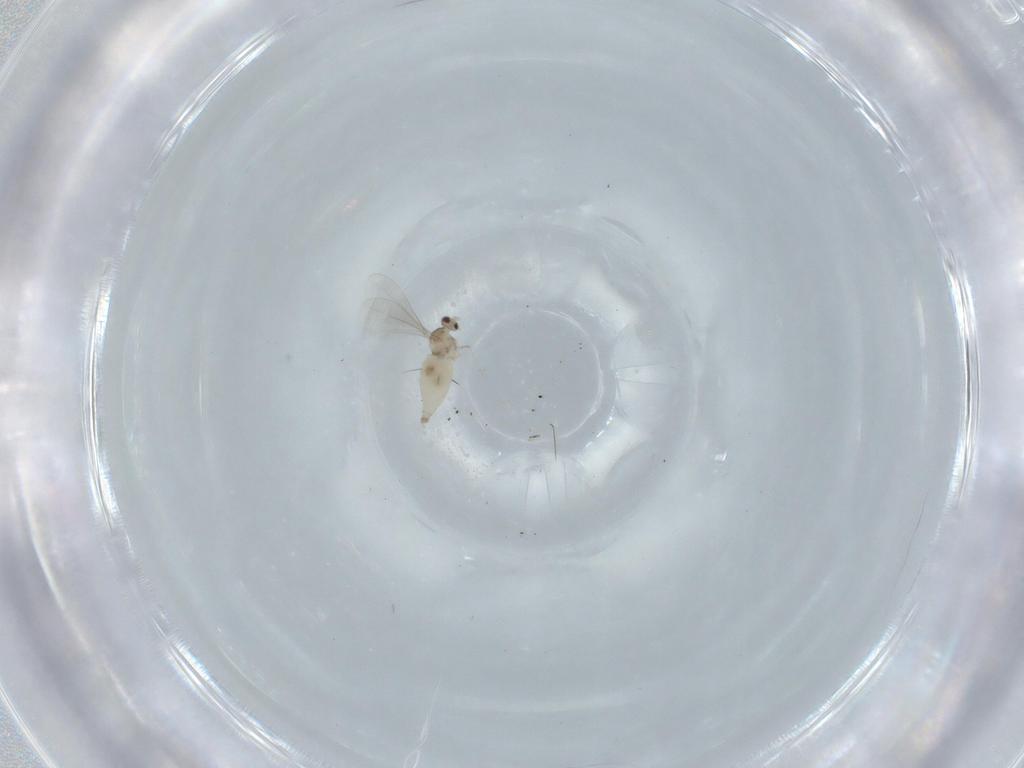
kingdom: Animalia
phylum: Arthropoda
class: Insecta
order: Diptera
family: Cecidomyiidae
